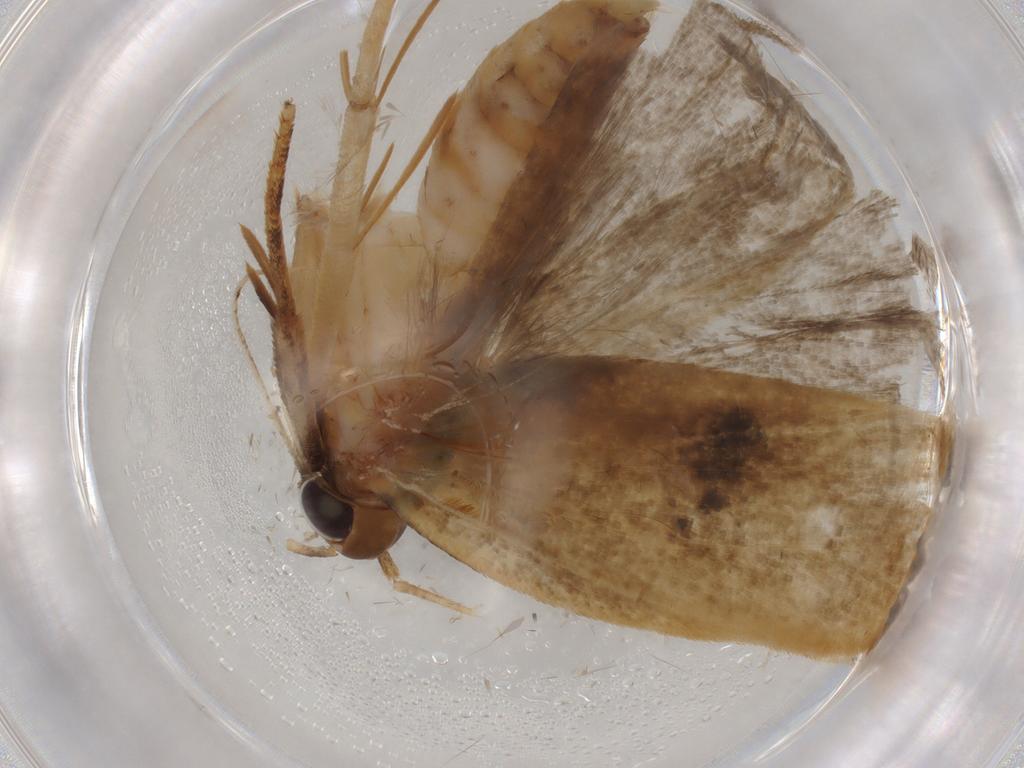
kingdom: Animalia
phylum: Arthropoda
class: Insecta
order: Lepidoptera
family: Gelechiidae
